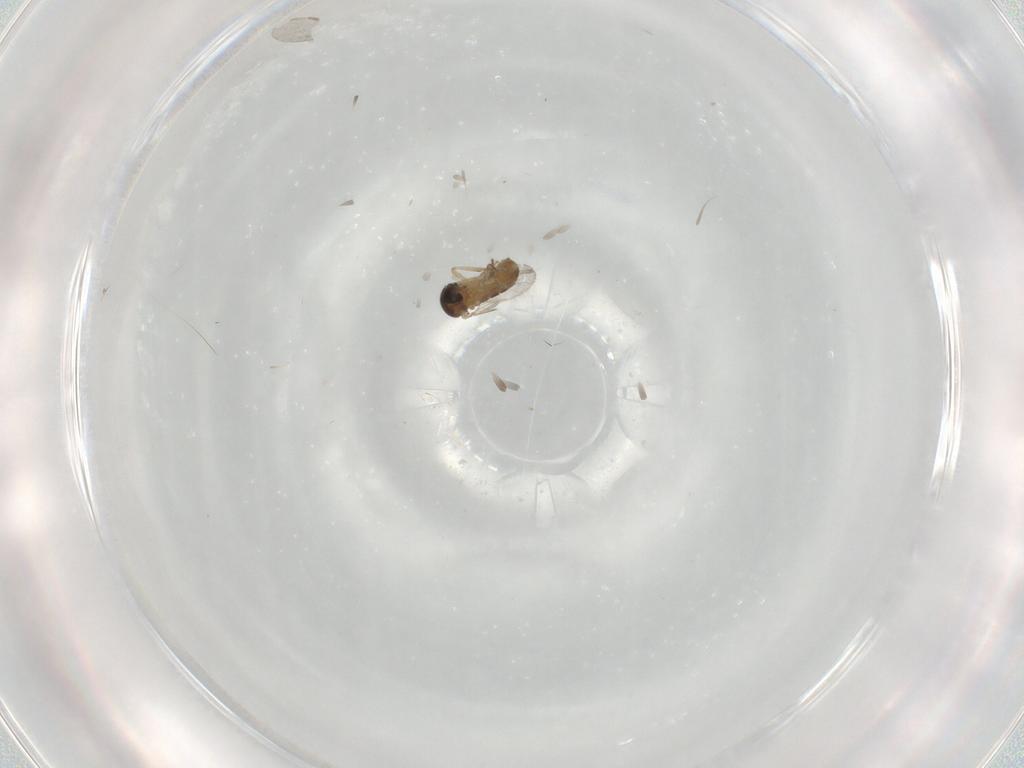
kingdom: Animalia
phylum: Arthropoda
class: Insecta
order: Diptera
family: Ceratopogonidae
